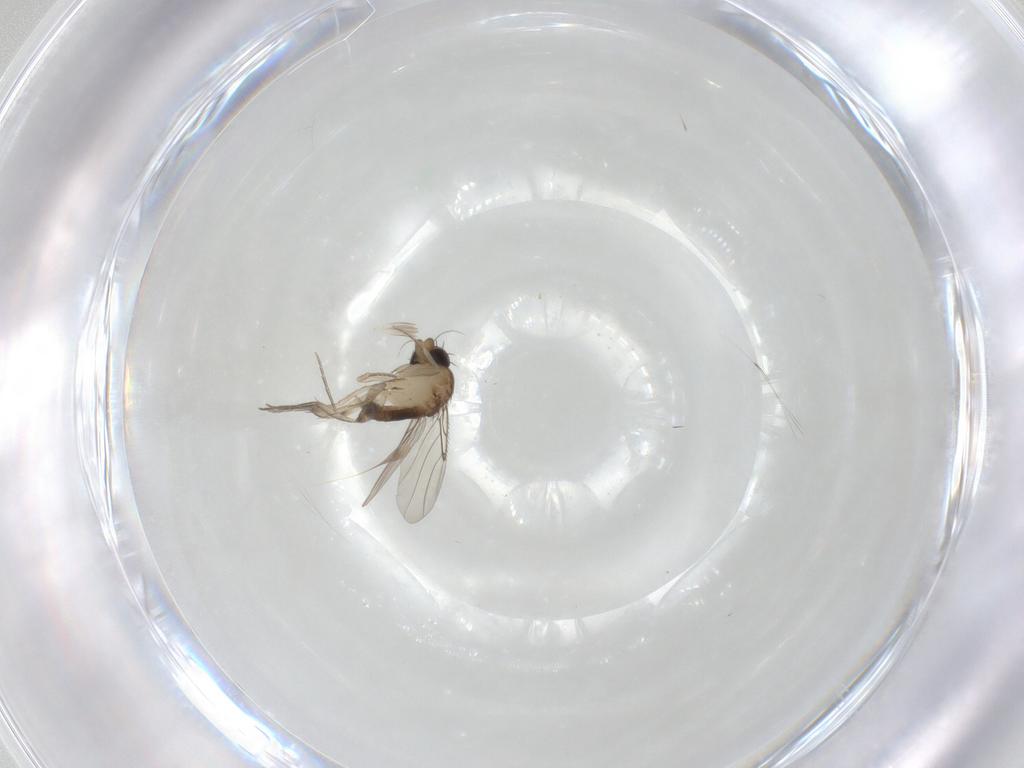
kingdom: Animalia
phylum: Arthropoda
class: Insecta
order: Diptera
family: Phoridae
